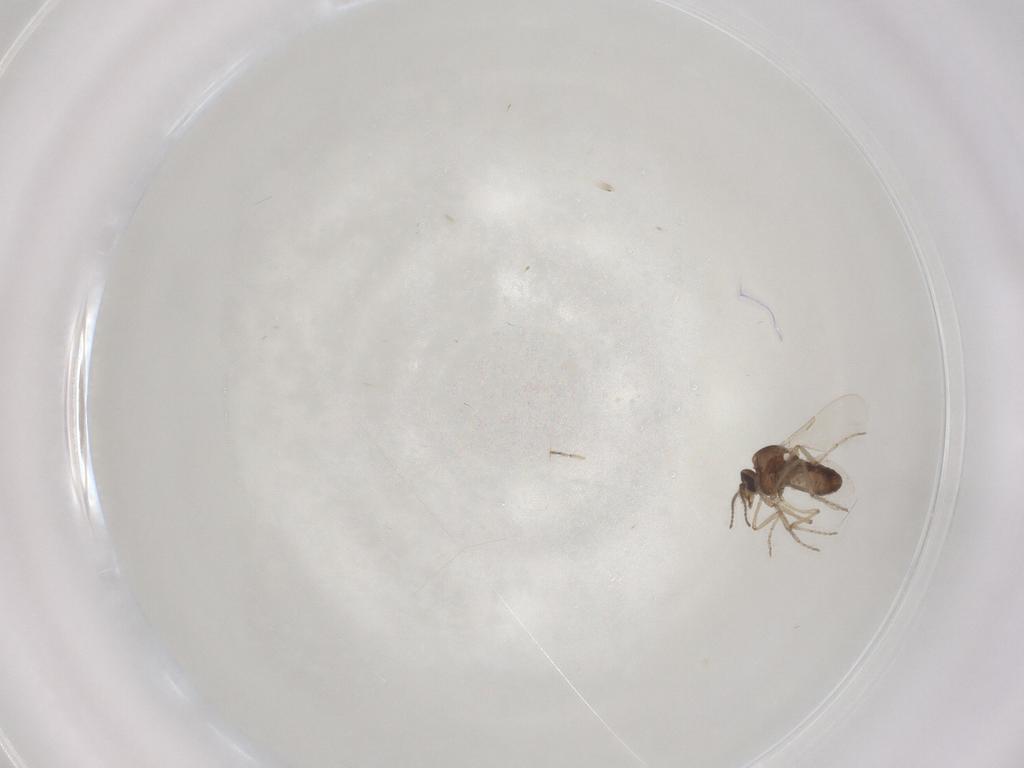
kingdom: Animalia
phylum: Arthropoda
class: Insecta
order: Diptera
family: Ceratopogonidae
